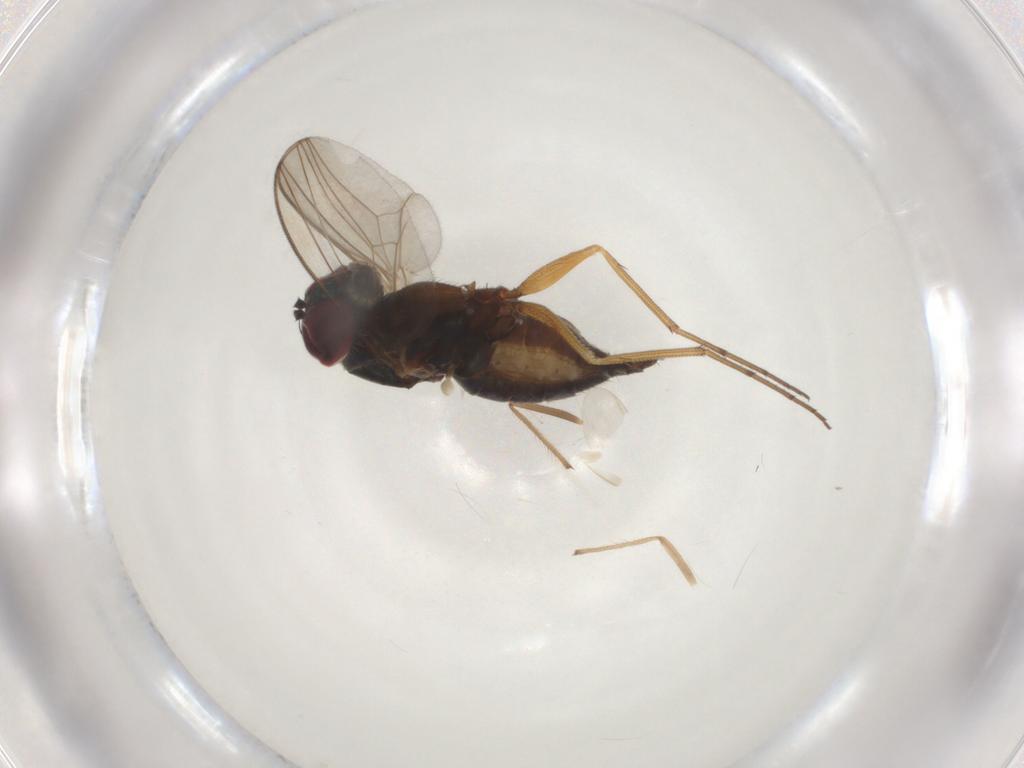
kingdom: Animalia
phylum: Arthropoda
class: Insecta
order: Diptera
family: Dolichopodidae
